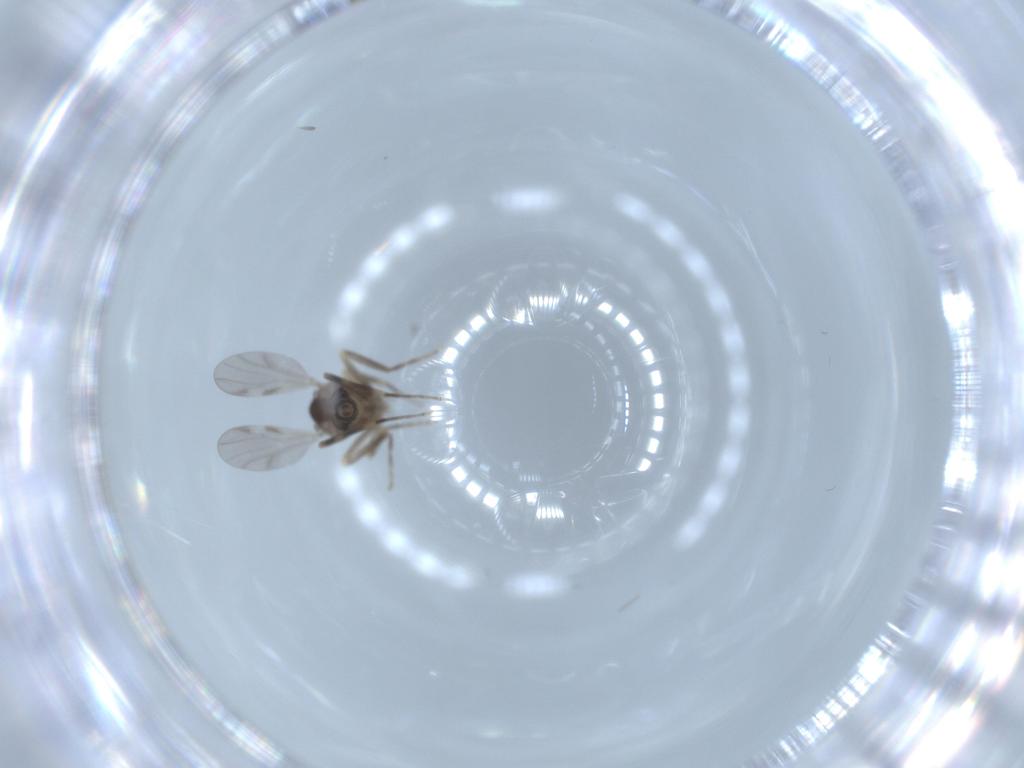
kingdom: Animalia
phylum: Arthropoda
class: Insecta
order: Diptera
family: Ceratopogonidae
